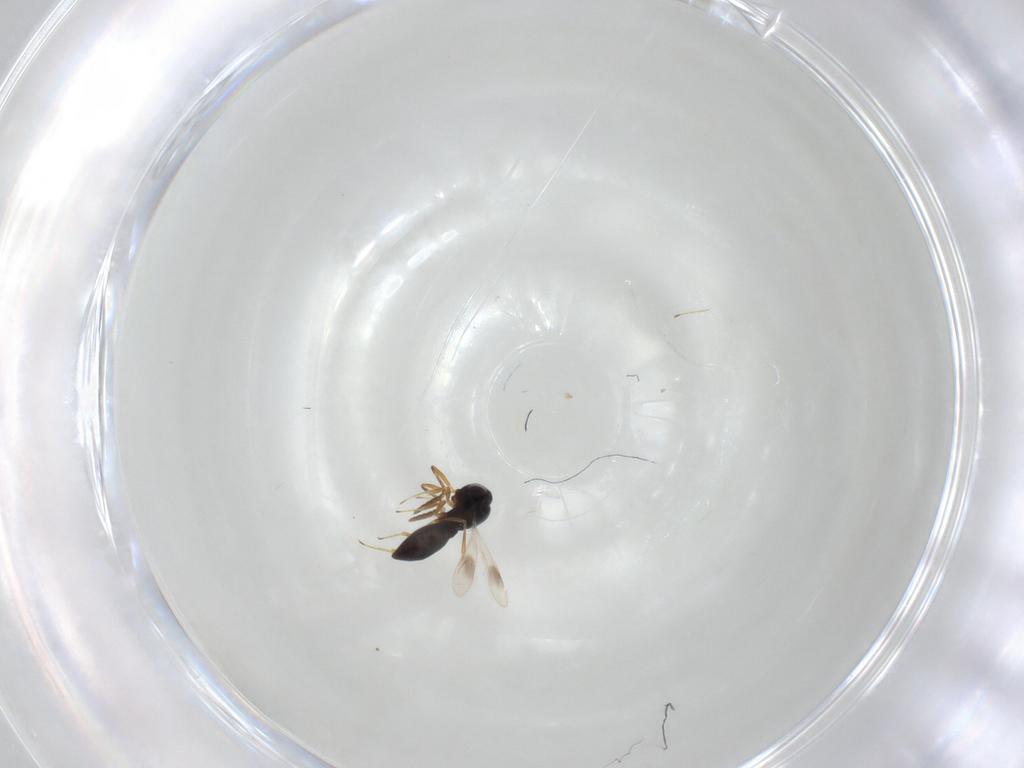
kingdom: Animalia
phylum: Arthropoda
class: Insecta
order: Hymenoptera
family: Scelionidae
